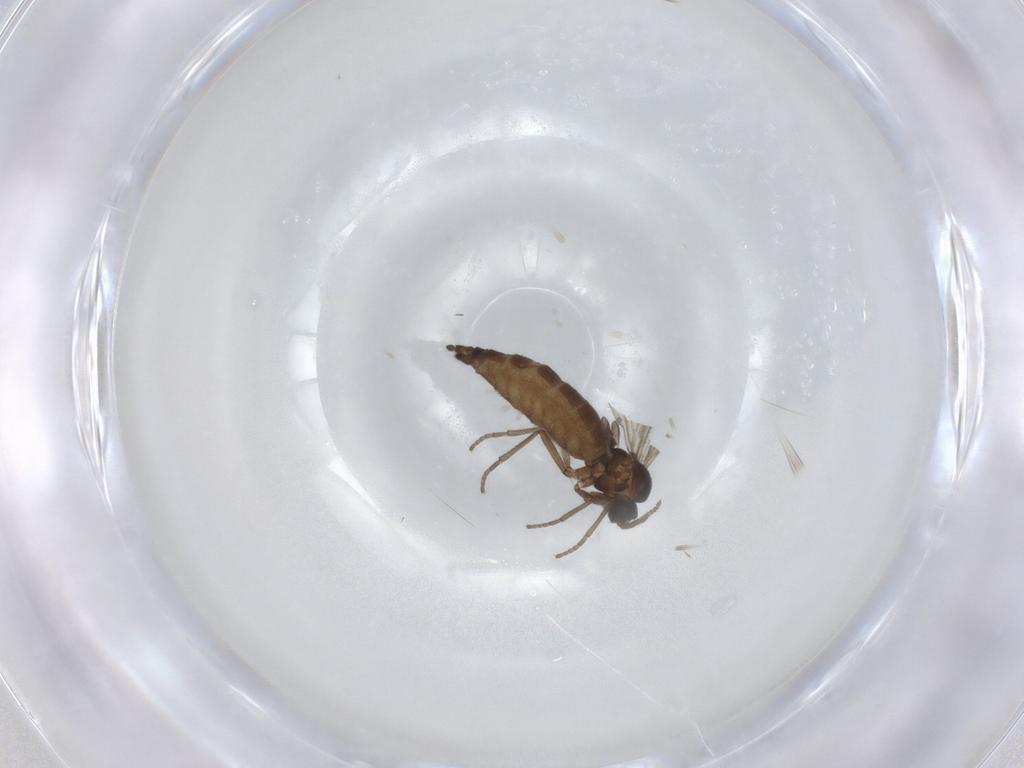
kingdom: Animalia
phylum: Arthropoda
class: Insecta
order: Diptera
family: Sciaridae
